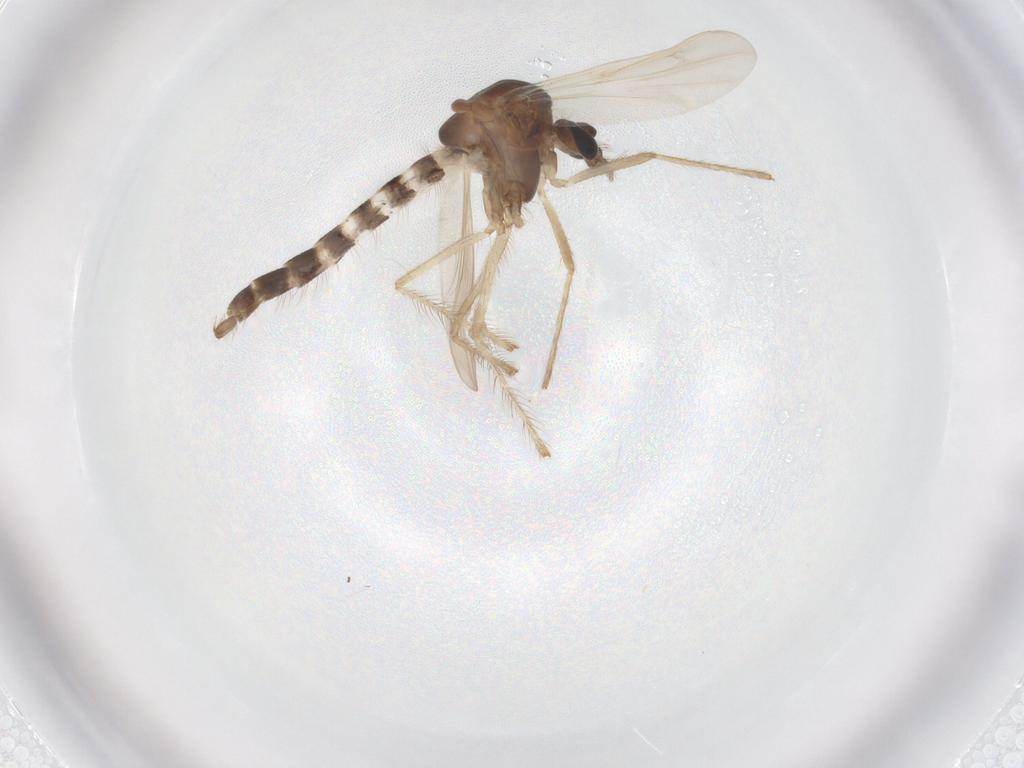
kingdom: Animalia
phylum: Arthropoda
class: Insecta
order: Diptera
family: Chironomidae
